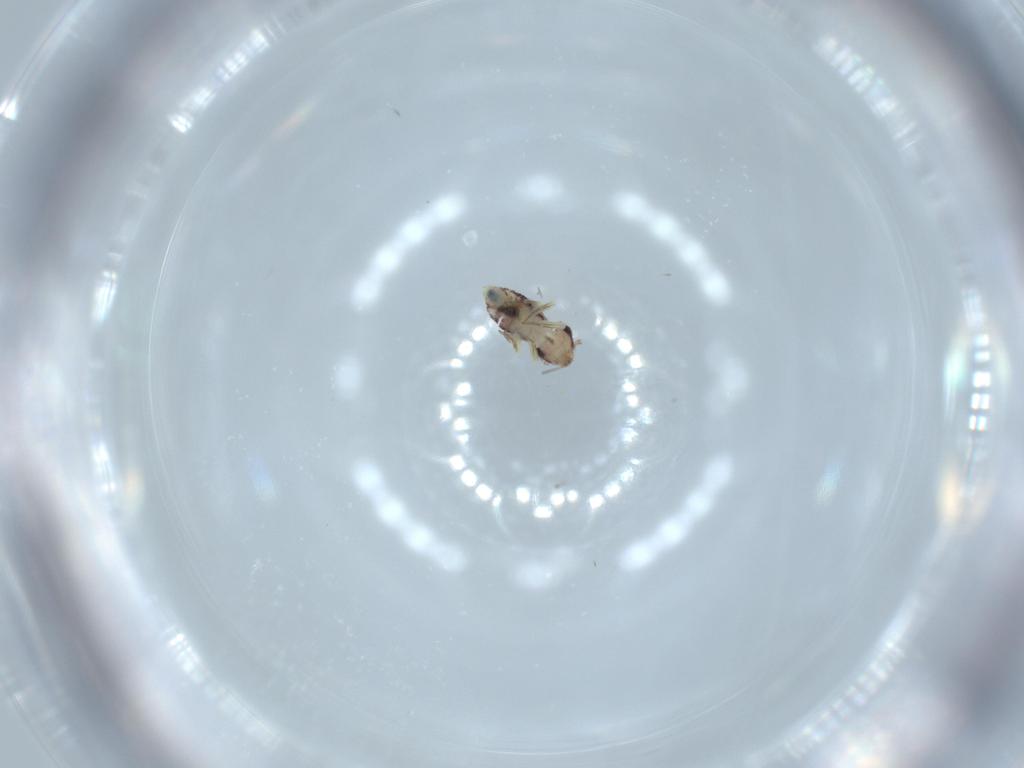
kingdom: Animalia
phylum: Arthropoda
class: Insecta
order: Psocodea
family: Psoquillidae
